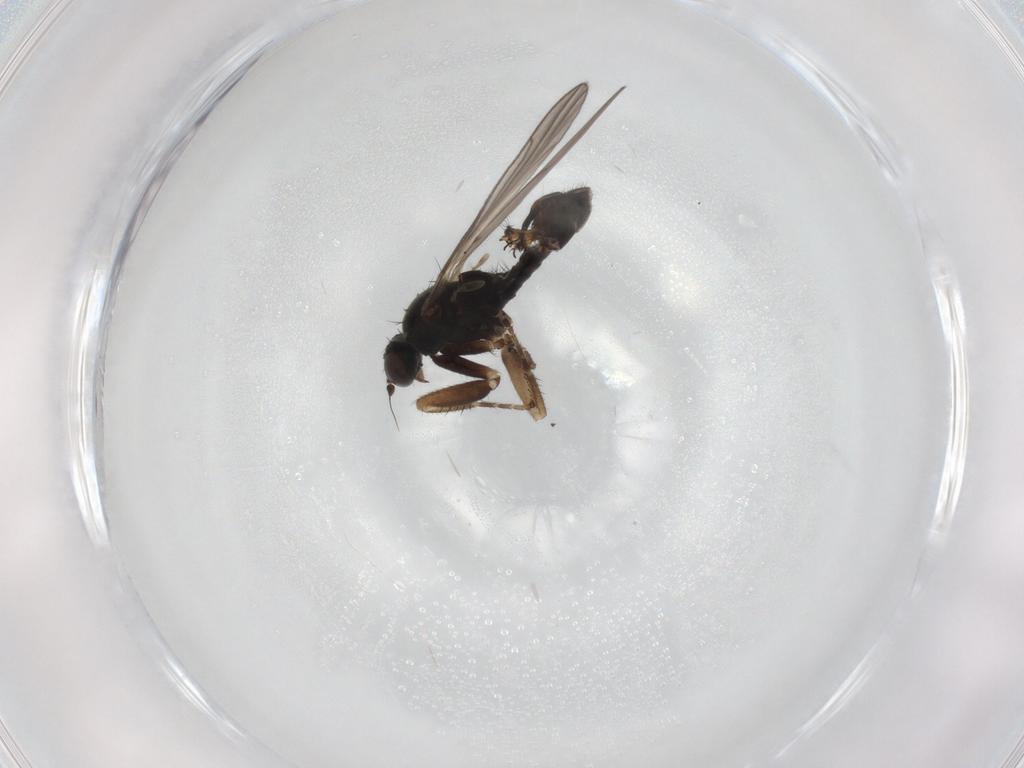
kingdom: Animalia
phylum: Arthropoda
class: Insecta
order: Diptera
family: Empididae
